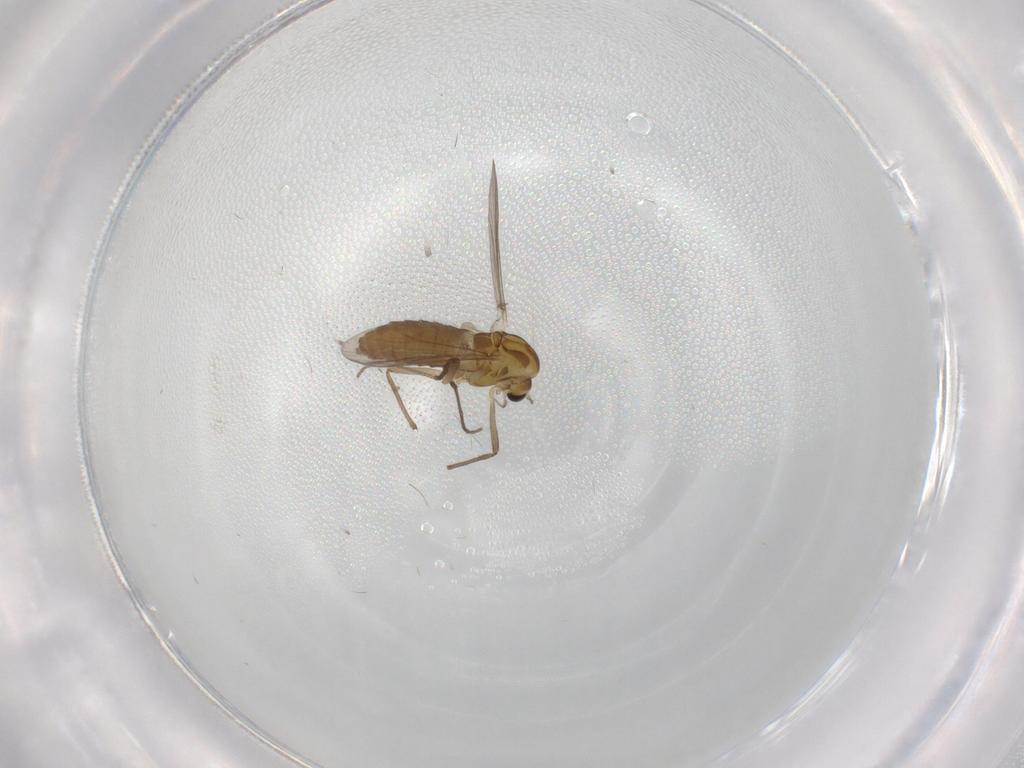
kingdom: Animalia
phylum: Arthropoda
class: Insecta
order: Diptera
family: Chironomidae
